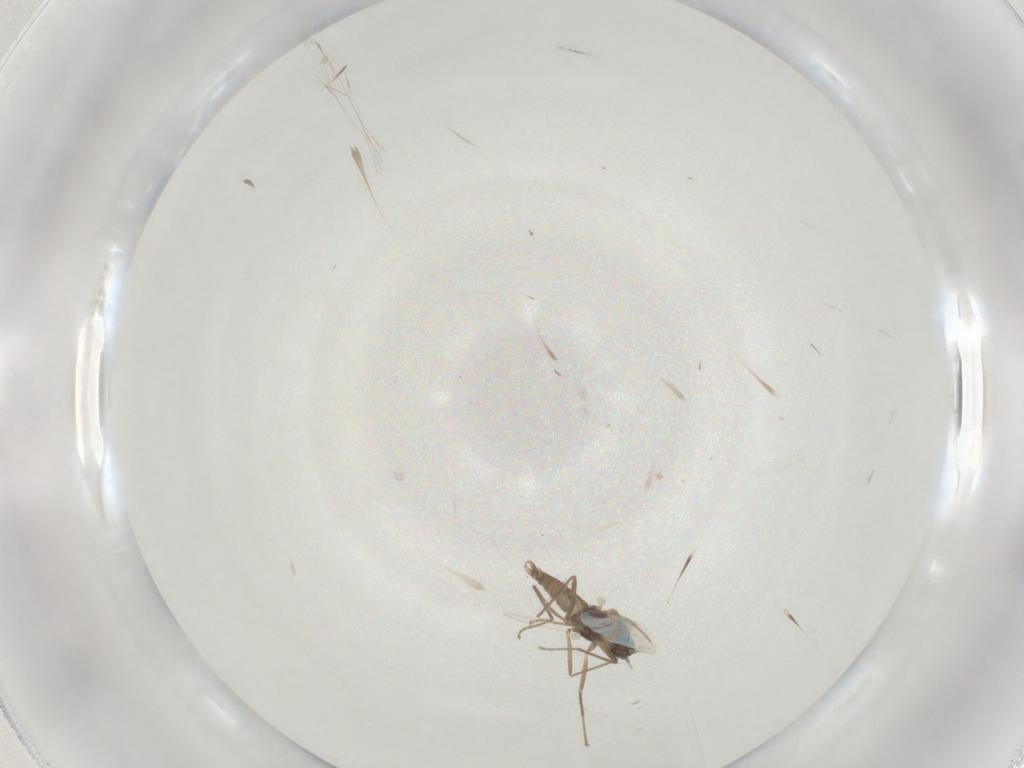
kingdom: Animalia
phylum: Arthropoda
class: Insecta
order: Diptera
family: Cecidomyiidae
